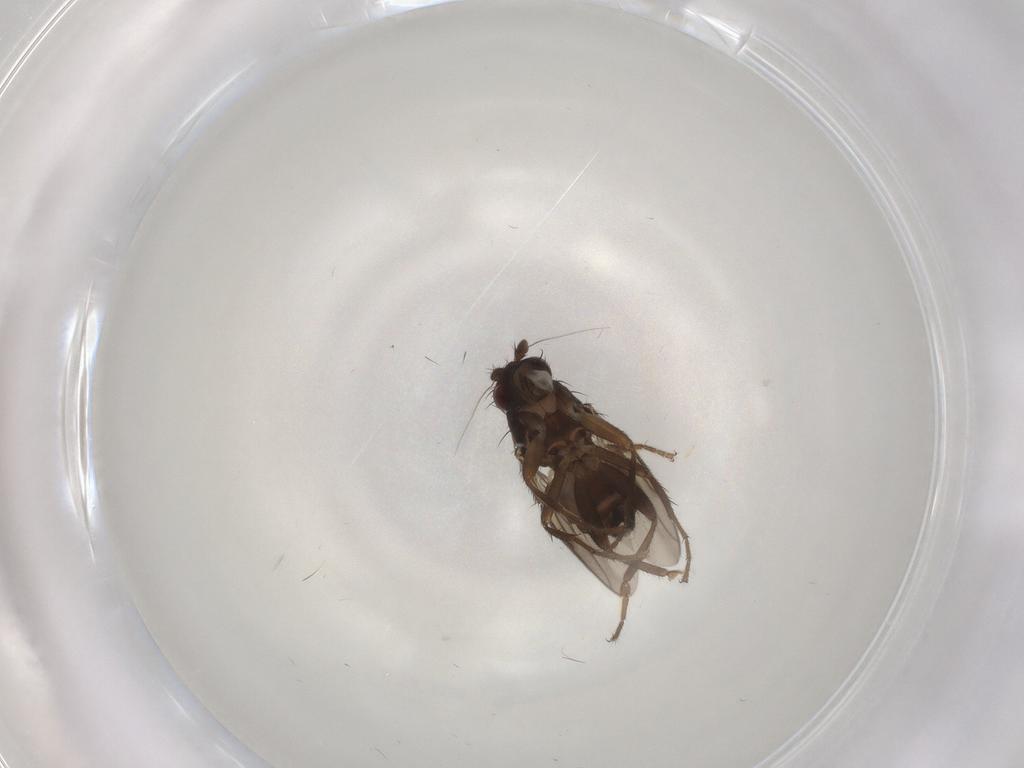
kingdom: Animalia
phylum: Arthropoda
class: Insecta
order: Diptera
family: Sphaeroceridae
